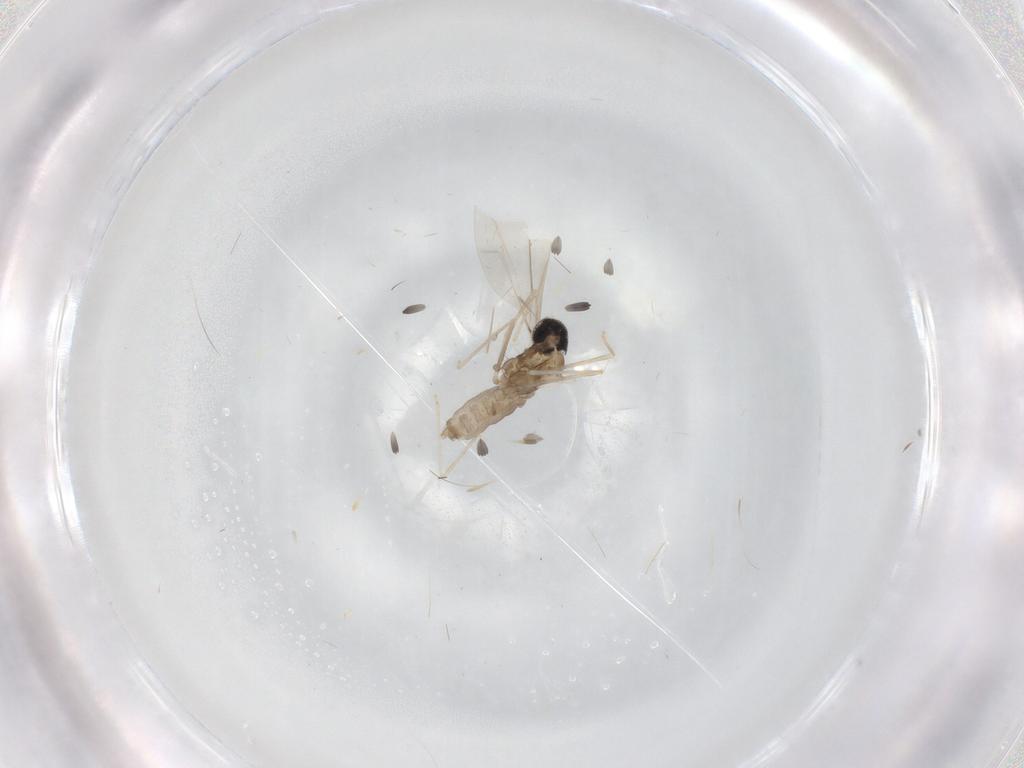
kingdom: Animalia
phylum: Arthropoda
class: Insecta
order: Diptera
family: Cecidomyiidae
